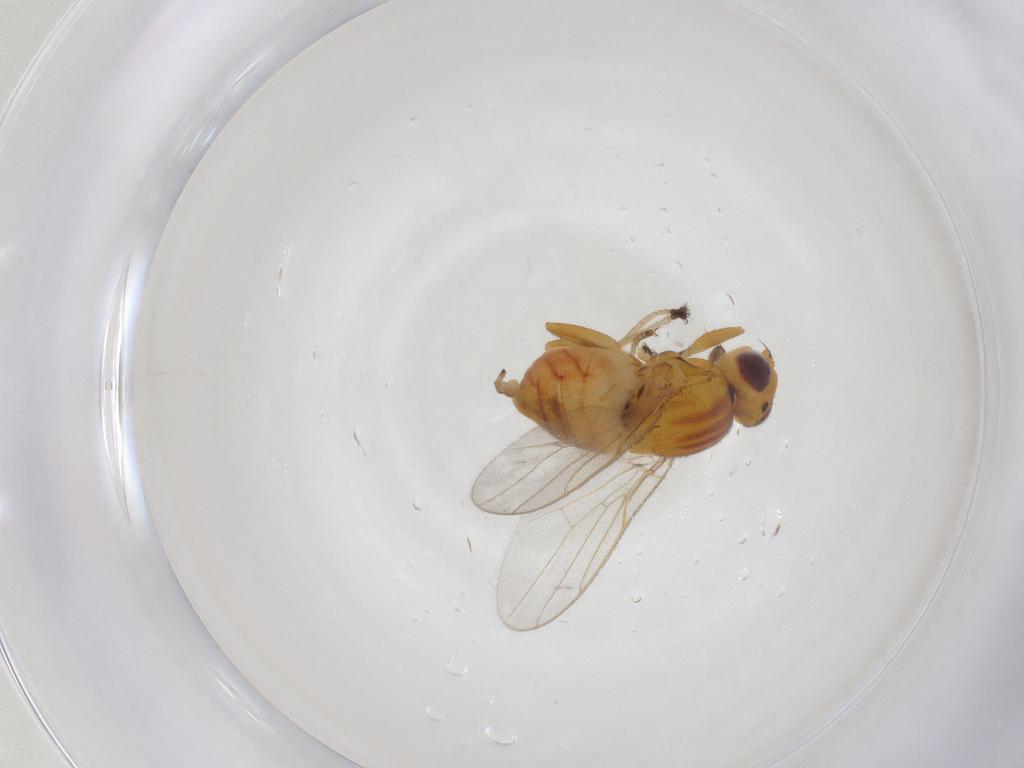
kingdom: Animalia
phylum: Arthropoda
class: Insecta
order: Diptera
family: Chloropidae
